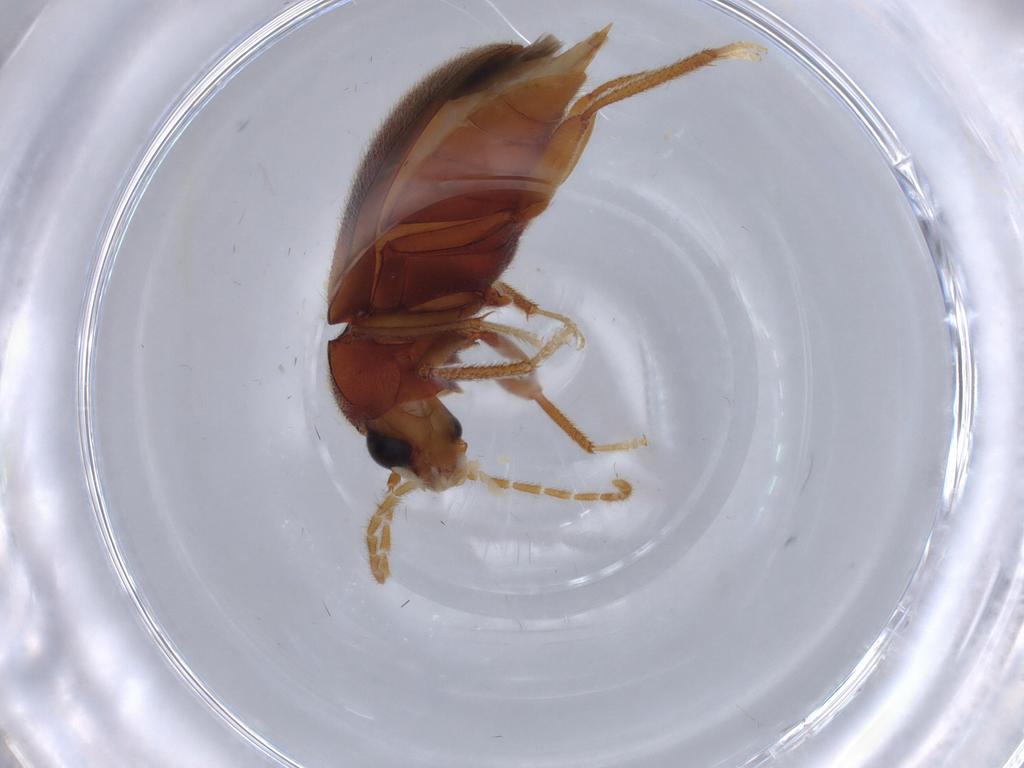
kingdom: Animalia
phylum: Arthropoda
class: Insecta
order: Coleoptera
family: Ptilodactylidae
